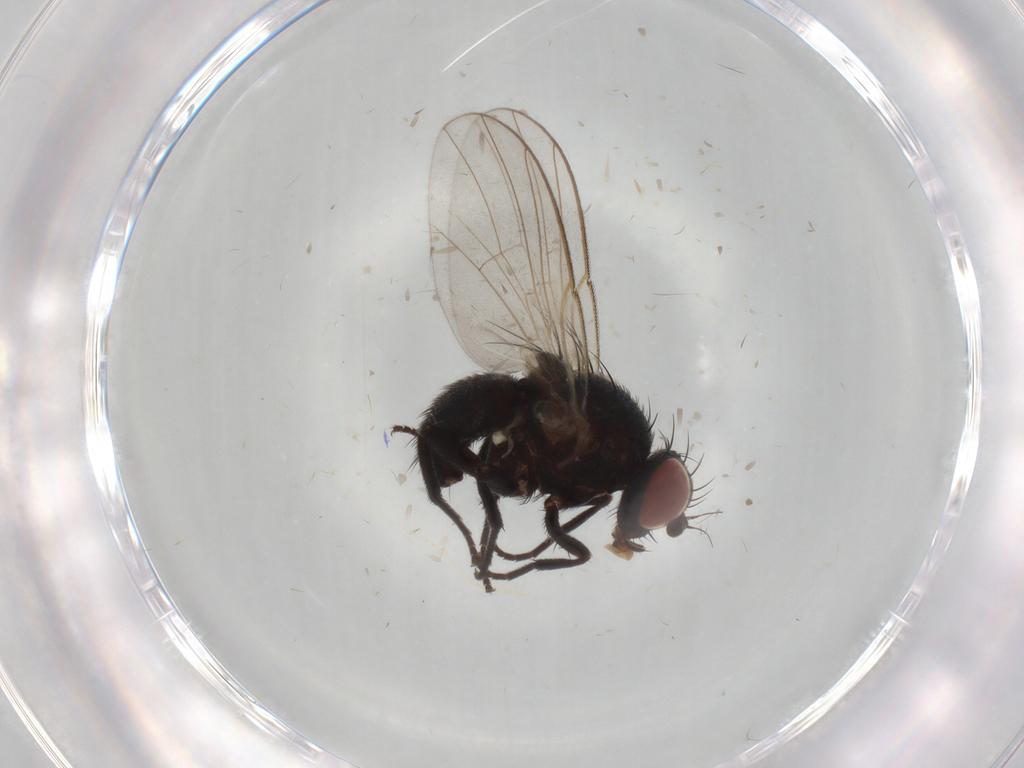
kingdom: Animalia
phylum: Arthropoda
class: Insecta
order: Diptera
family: Agromyzidae
